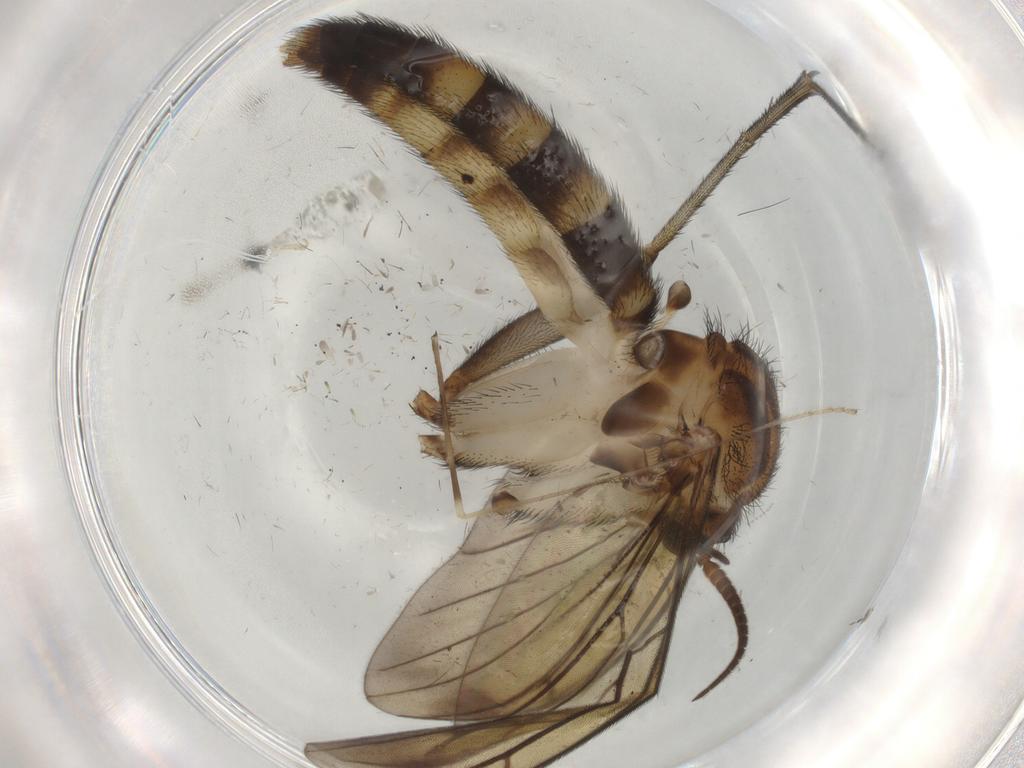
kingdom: Animalia
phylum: Arthropoda
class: Insecta
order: Diptera
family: Keroplatidae
